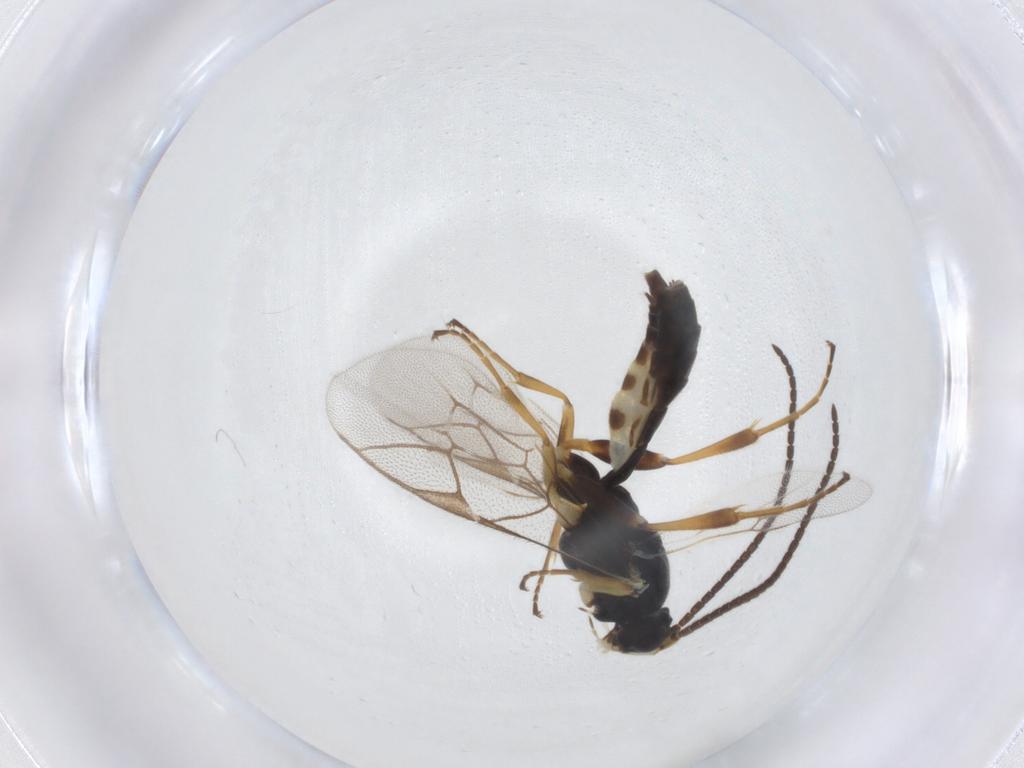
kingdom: Animalia
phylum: Arthropoda
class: Insecta
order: Hymenoptera
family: Ichneumonidae
